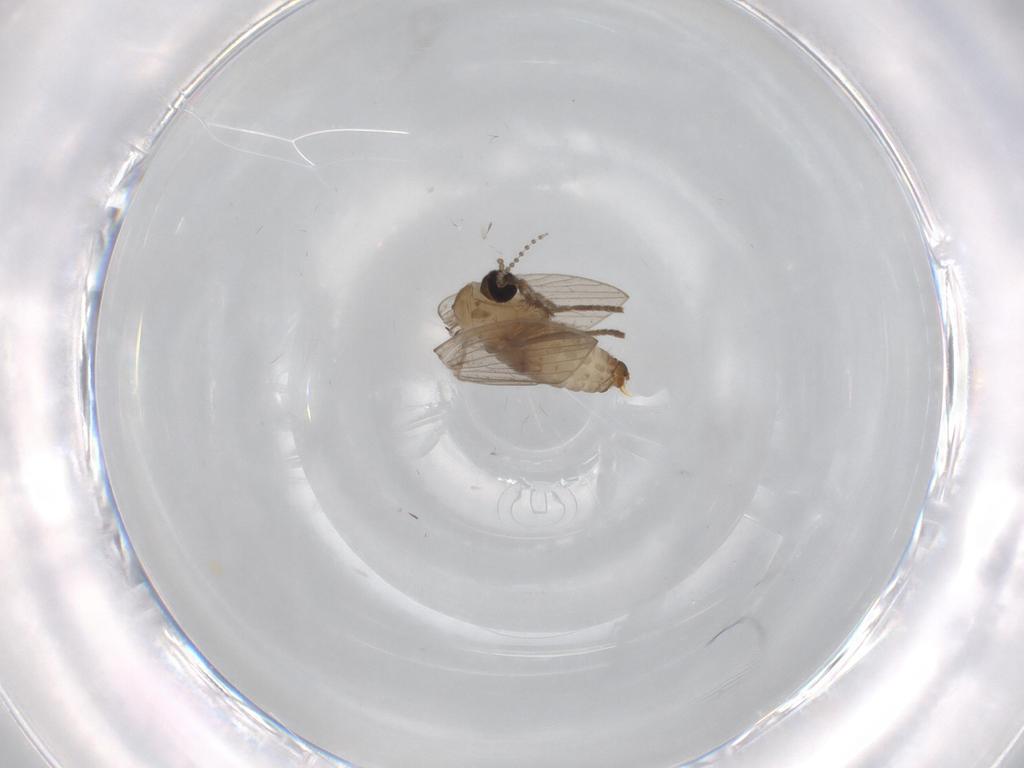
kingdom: Animalia
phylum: Arthropoda
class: Insecta
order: Diptera
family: Psychodidae
